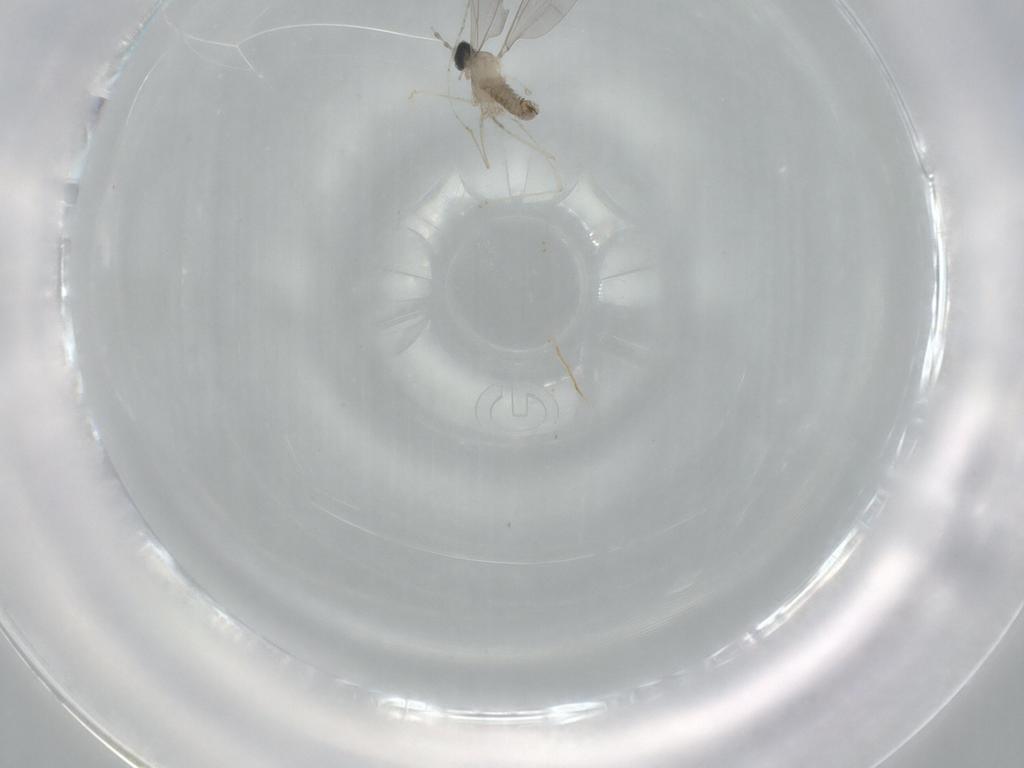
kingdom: Animalia
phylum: Arthropoda
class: Insecta
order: Diptera
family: Cecidomyiidae
